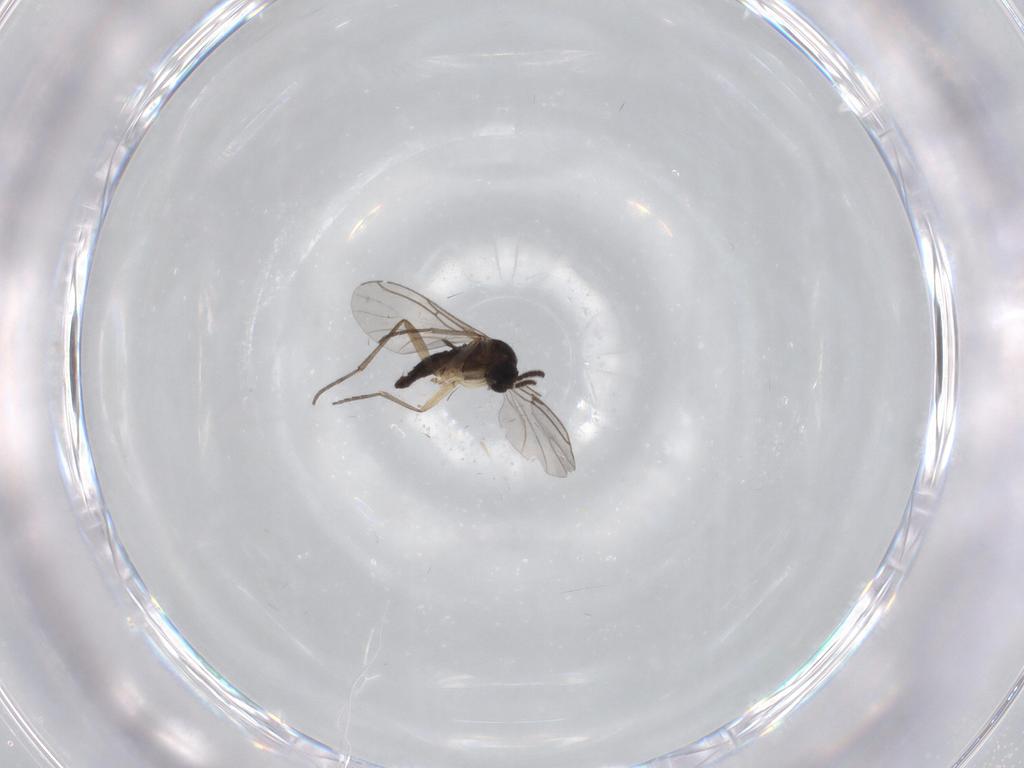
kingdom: Animalia
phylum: Arthropoda
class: Insecta
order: Diptera
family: Sciaridae
